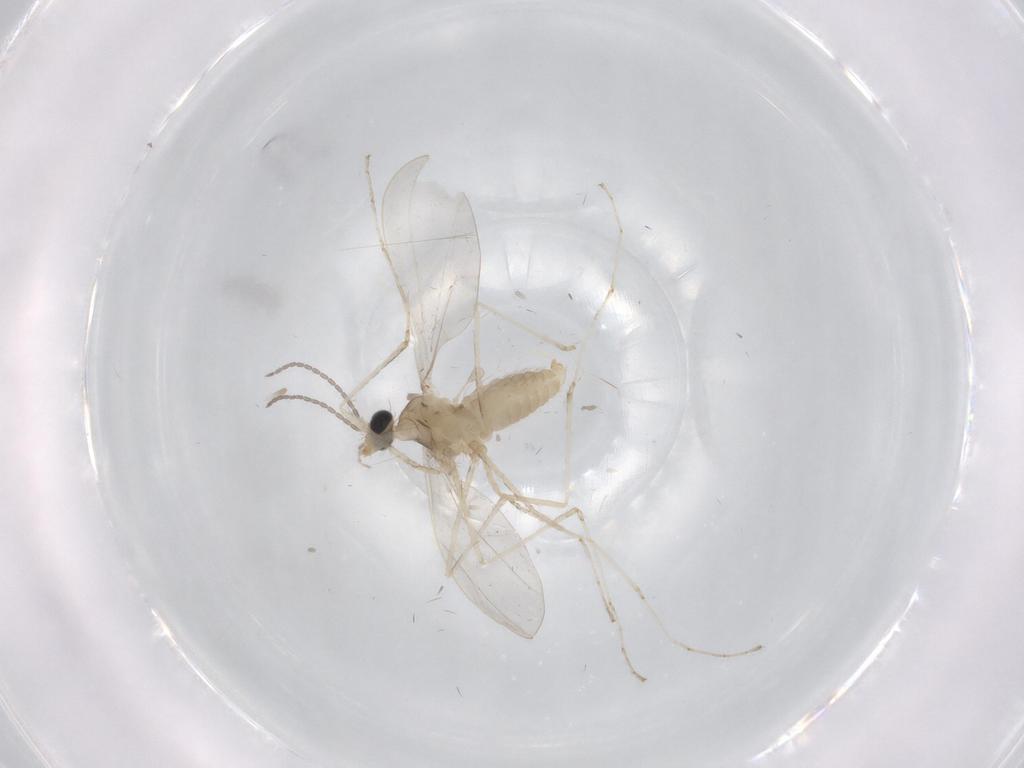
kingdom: Animalia
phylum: Arthropoda
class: Insecta
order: Diptera
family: Cecidomyiidae
